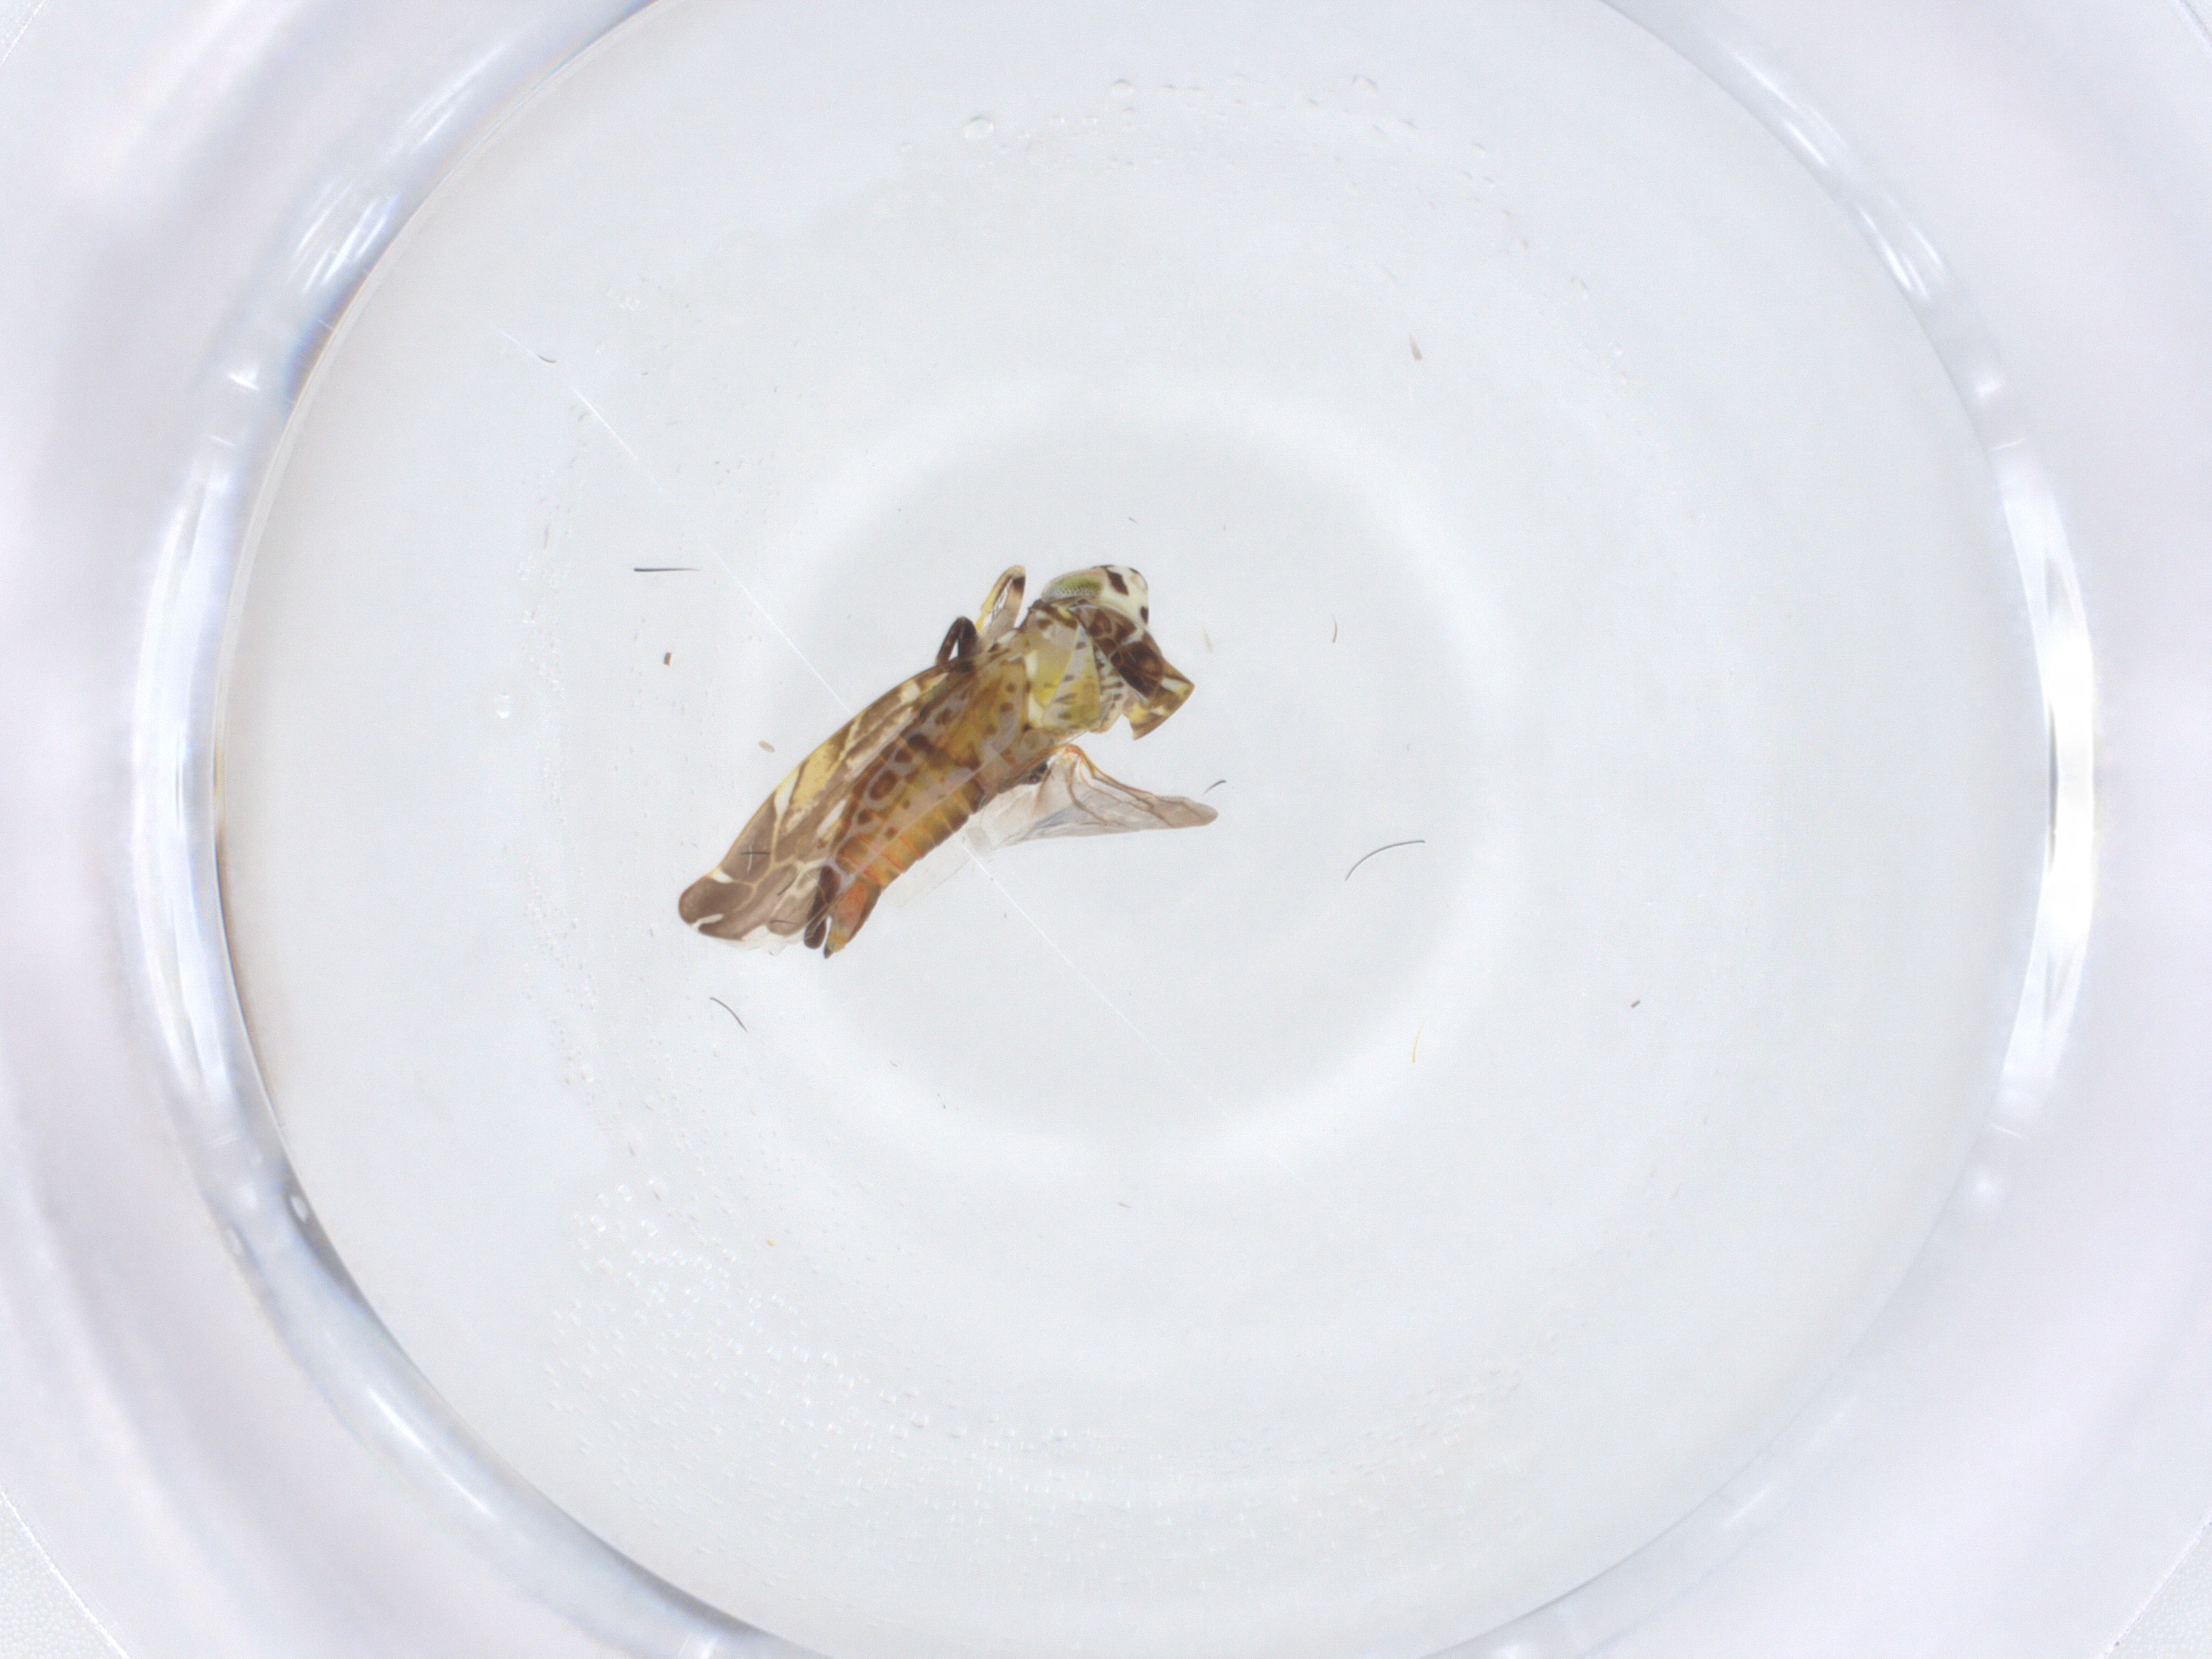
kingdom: Animalia
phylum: Arthropoda
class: Insecta
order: Hemiptera
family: Cicadellidae
